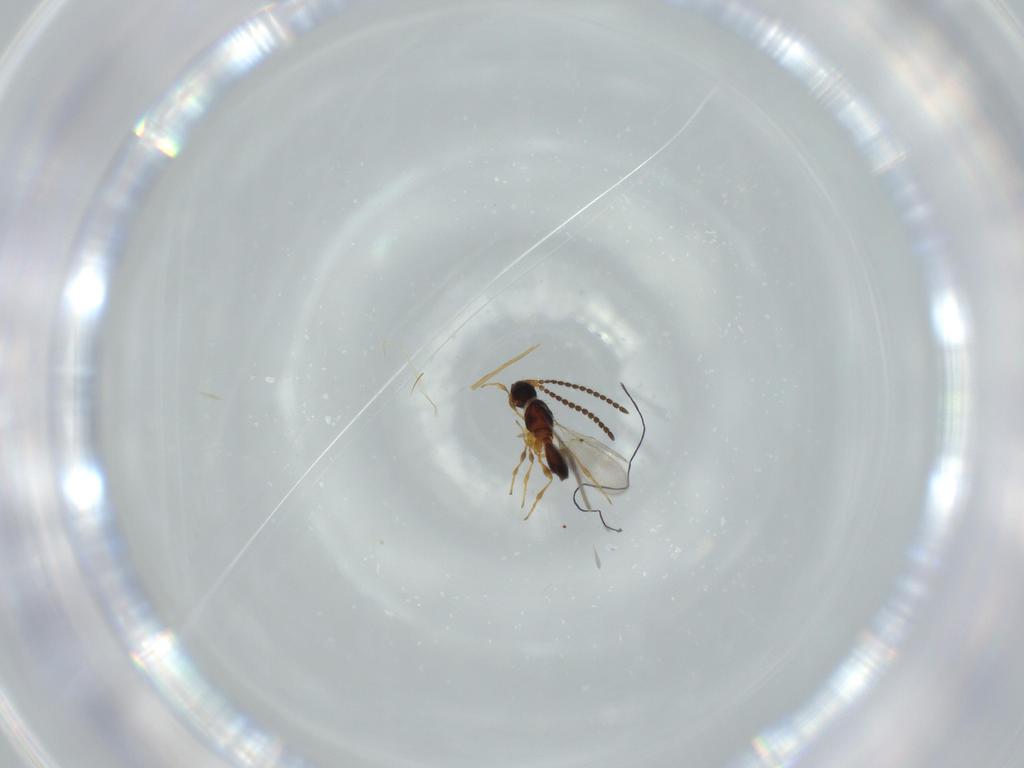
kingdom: Animalia
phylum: Arthropoda
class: Insecta
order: Hymenoptera
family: Diapriidae
